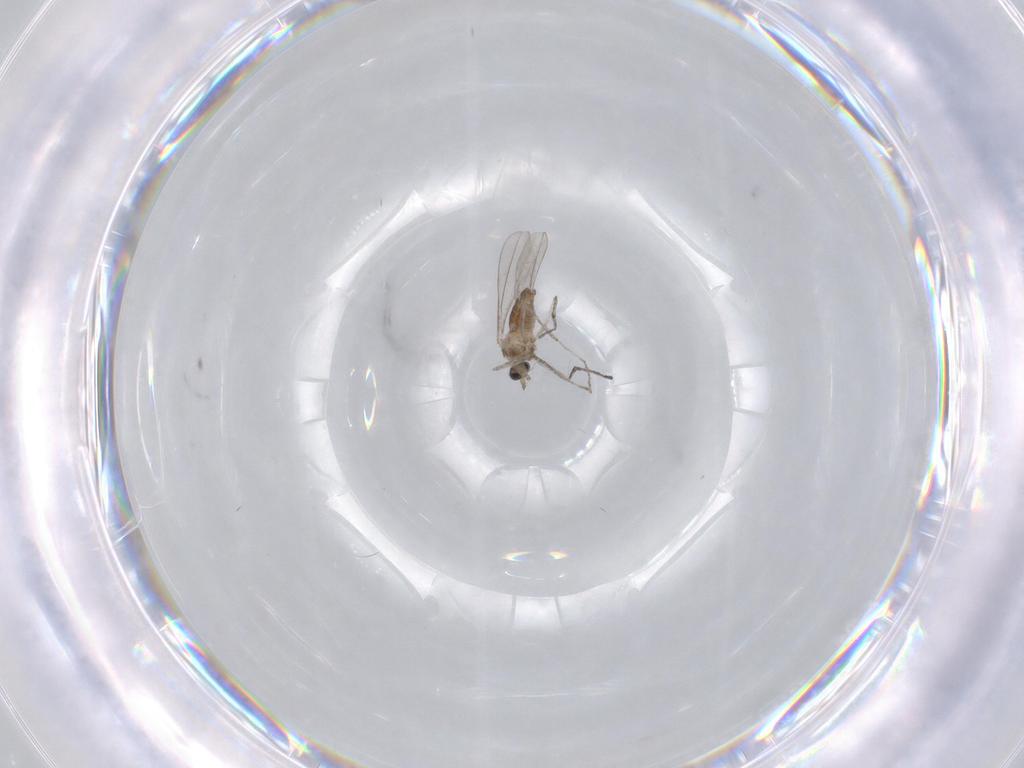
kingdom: Animalia
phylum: Arthropoda
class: Insecta
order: Diptera
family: Cecidomyiidae
